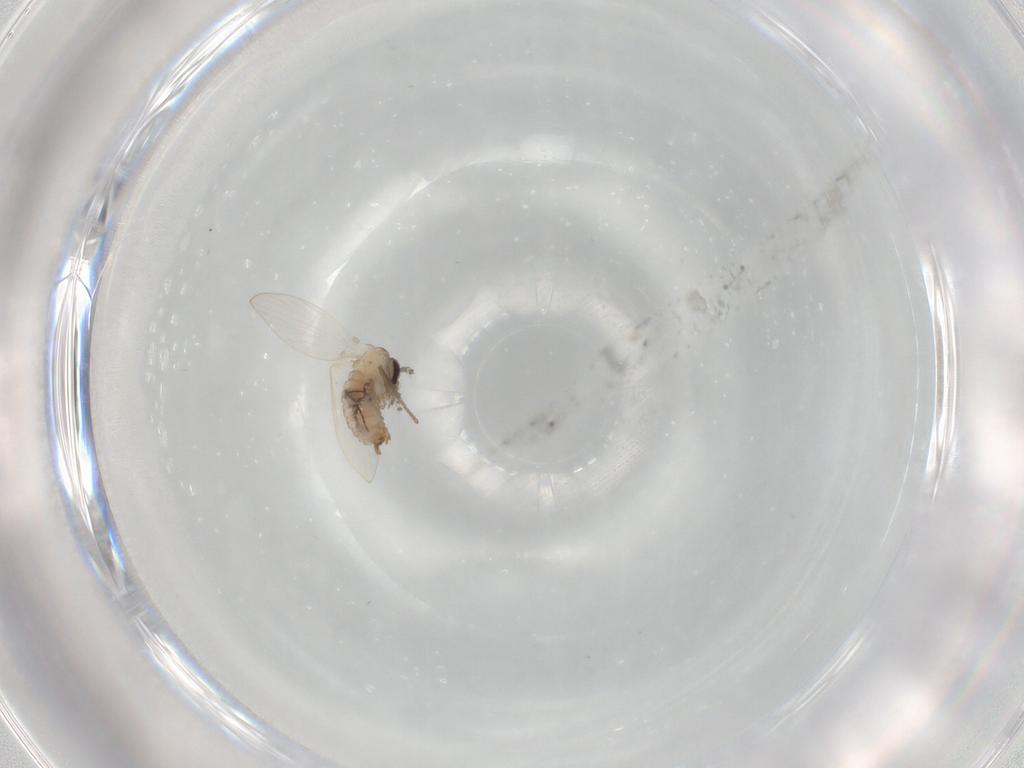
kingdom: Animalia
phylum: Arthropoda
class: Insecta
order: Diptera
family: Psychodidae
